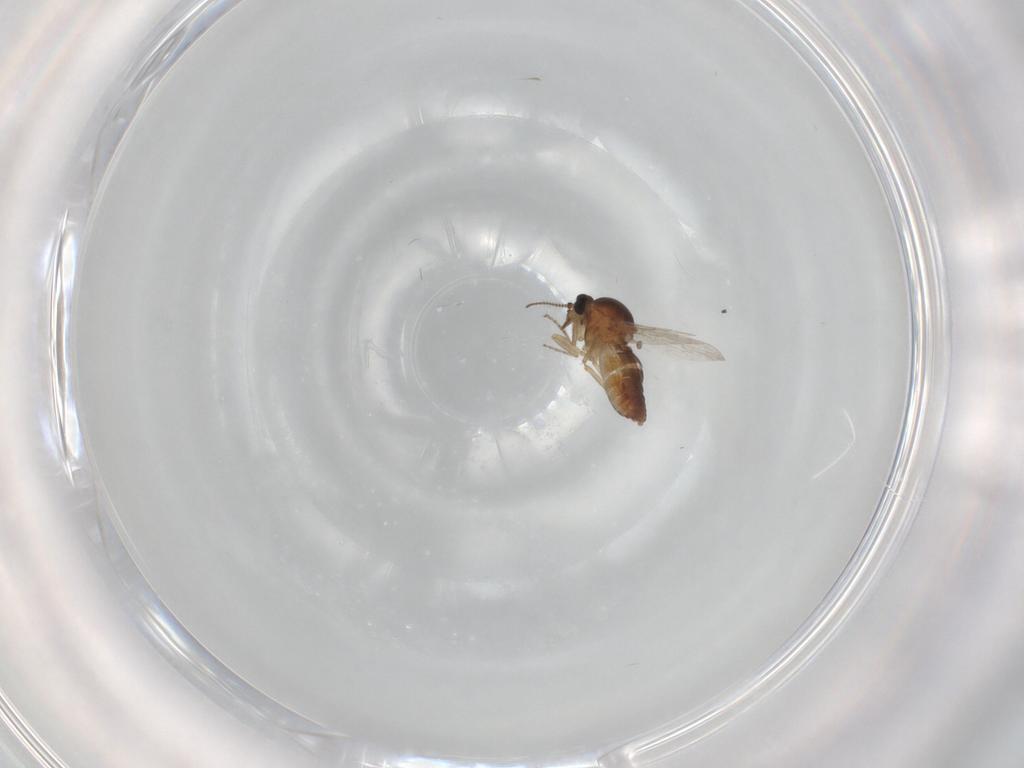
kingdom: Animalia
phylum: Arthropoda
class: Insecta
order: Diptera
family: Ceratopogonidae
